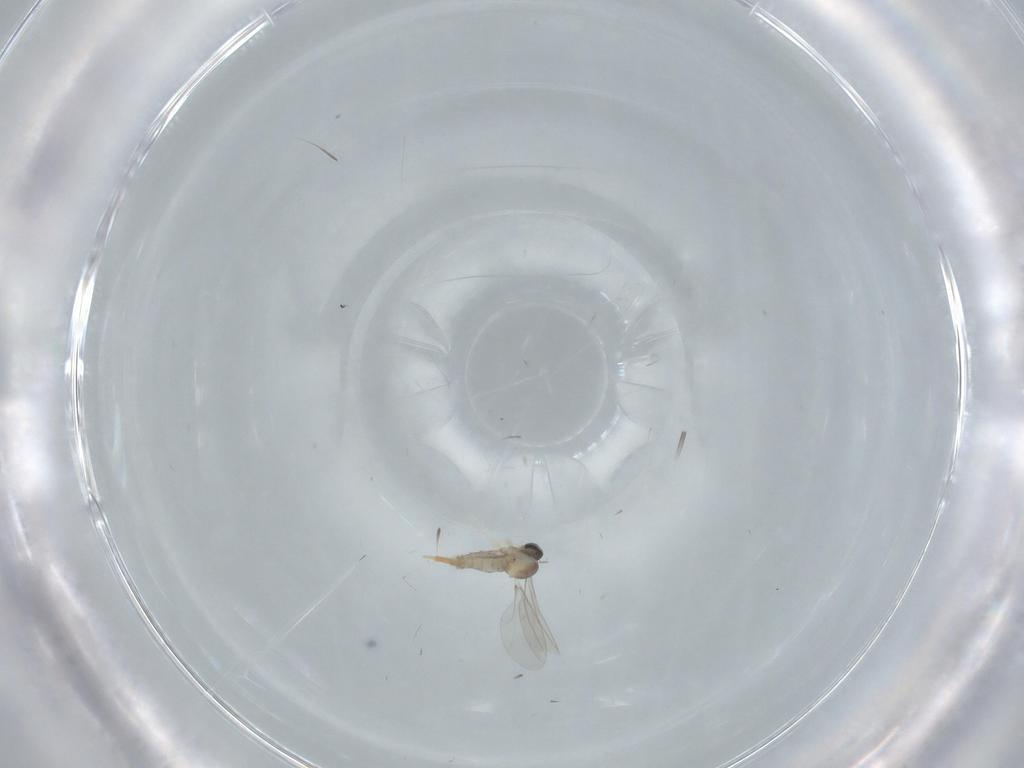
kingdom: Animalia
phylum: Arthropoda
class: Insecta
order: Diptera
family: Cecidomyiidae
